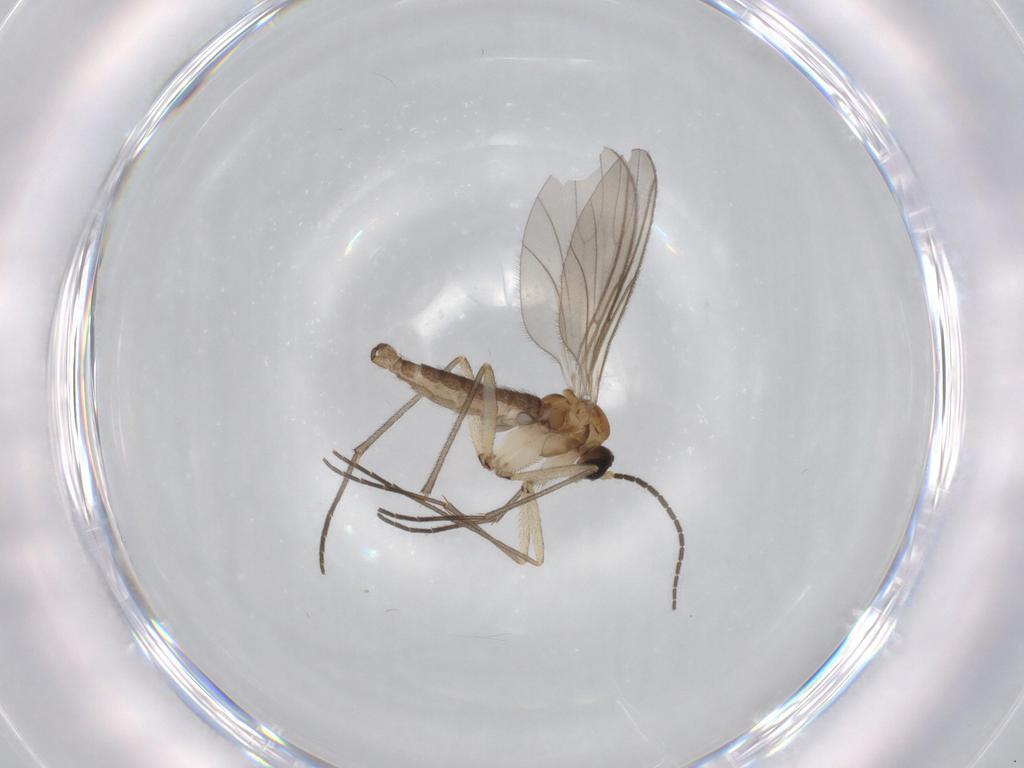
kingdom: Animalia
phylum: Arthropoda
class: Insecta
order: Diptera
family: Sciaridae
